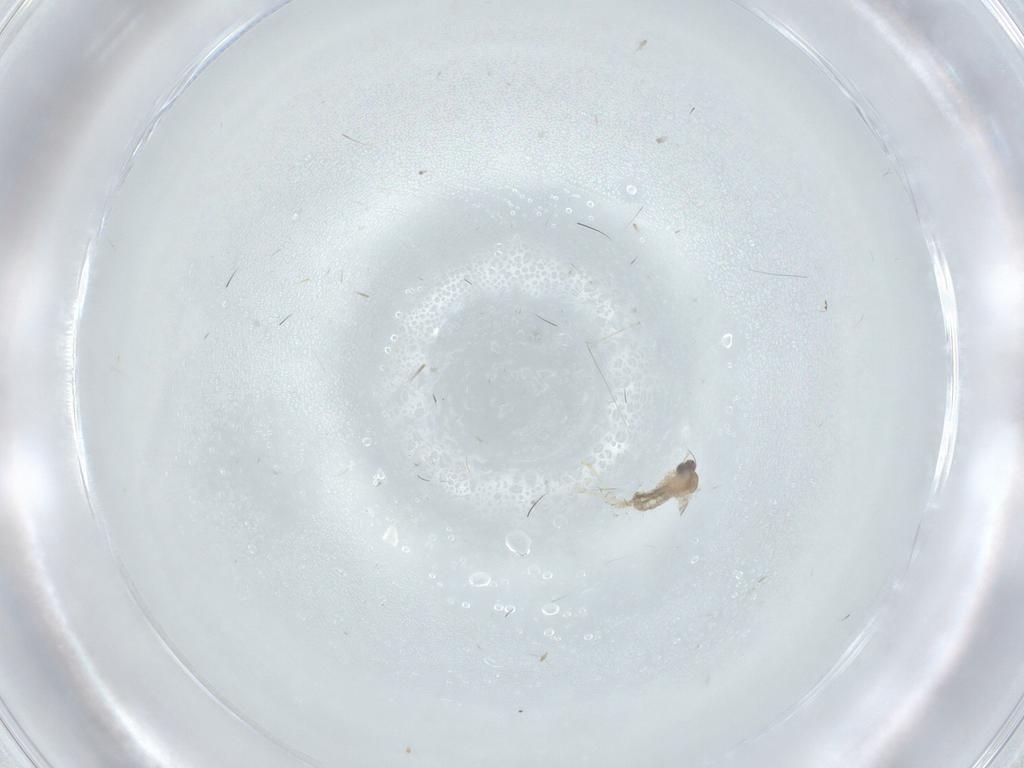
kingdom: Animalia
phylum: Arthropoda
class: Insecta
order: Diptera
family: Cecidomyiidae
